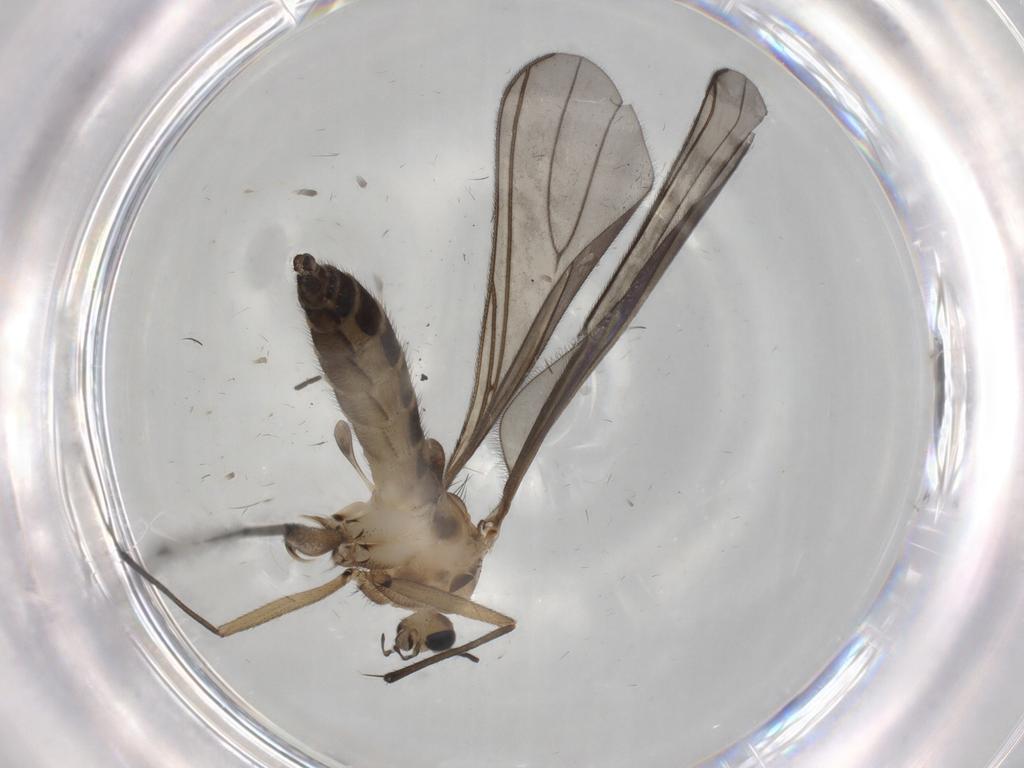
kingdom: Animalia
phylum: Arthropoda
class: Insecta
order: Diptera
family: Sciaridae
